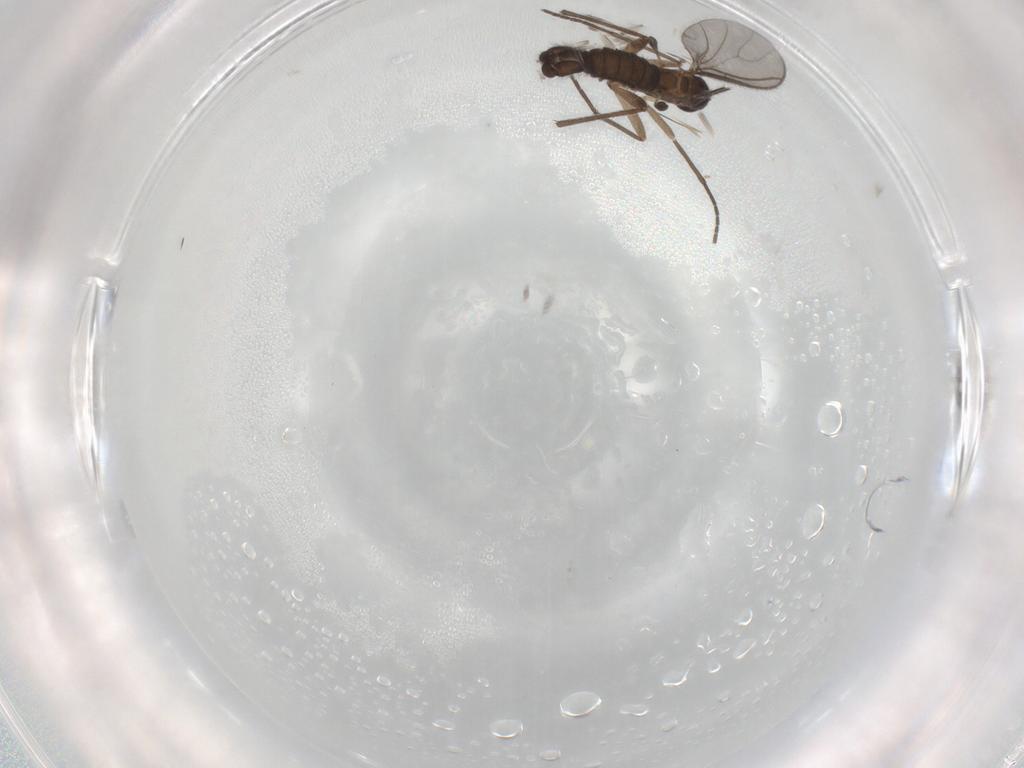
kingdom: Animalia
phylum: Arthropoda
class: Insecta
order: Diptera
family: Sciaridae
